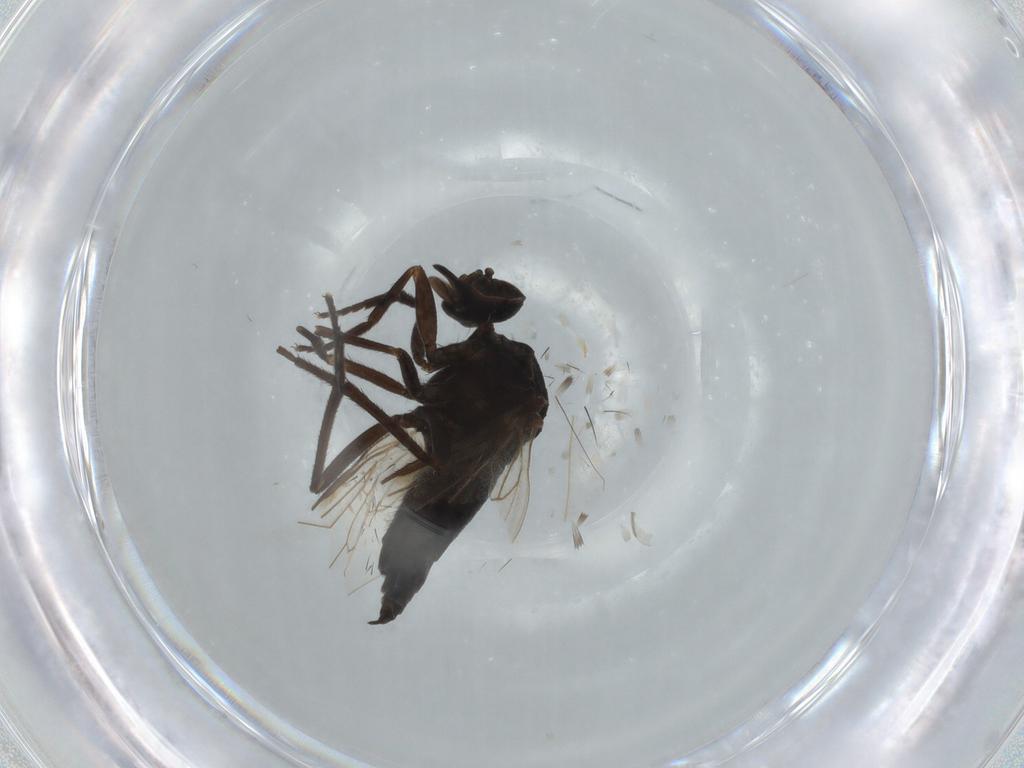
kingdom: Animalia
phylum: Arthropoda
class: Insecta
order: Diptera
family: Empididae
